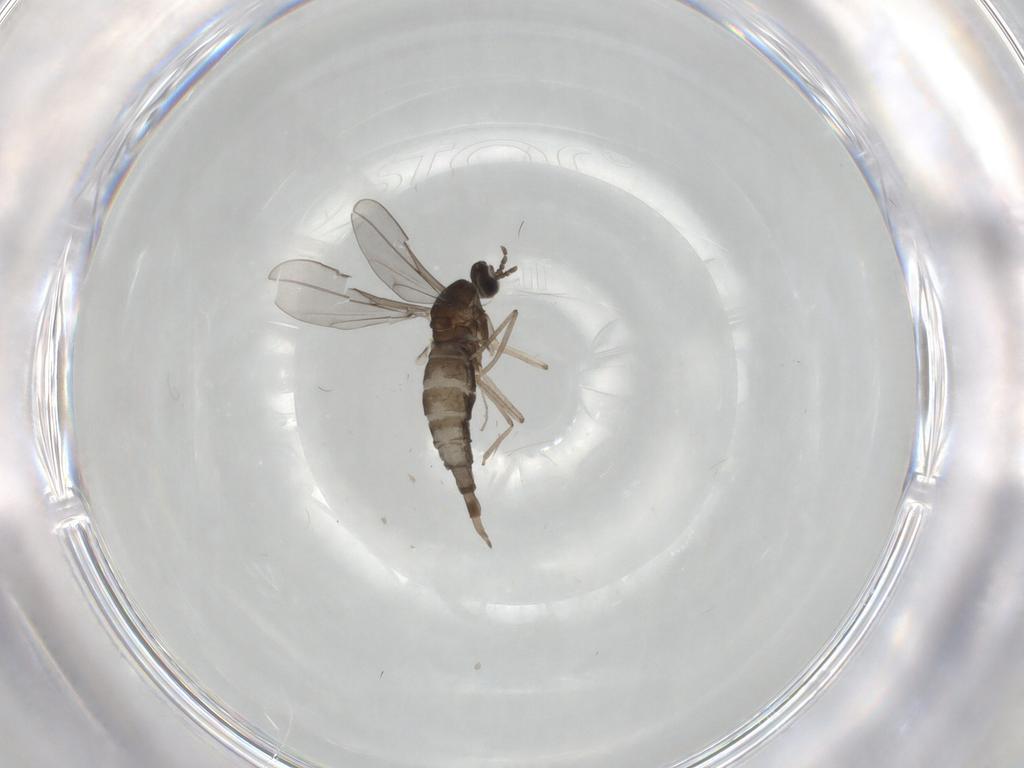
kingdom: Animalia
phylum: Arthropoda
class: Insecta
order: Diptera
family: Cecidomyiidae
